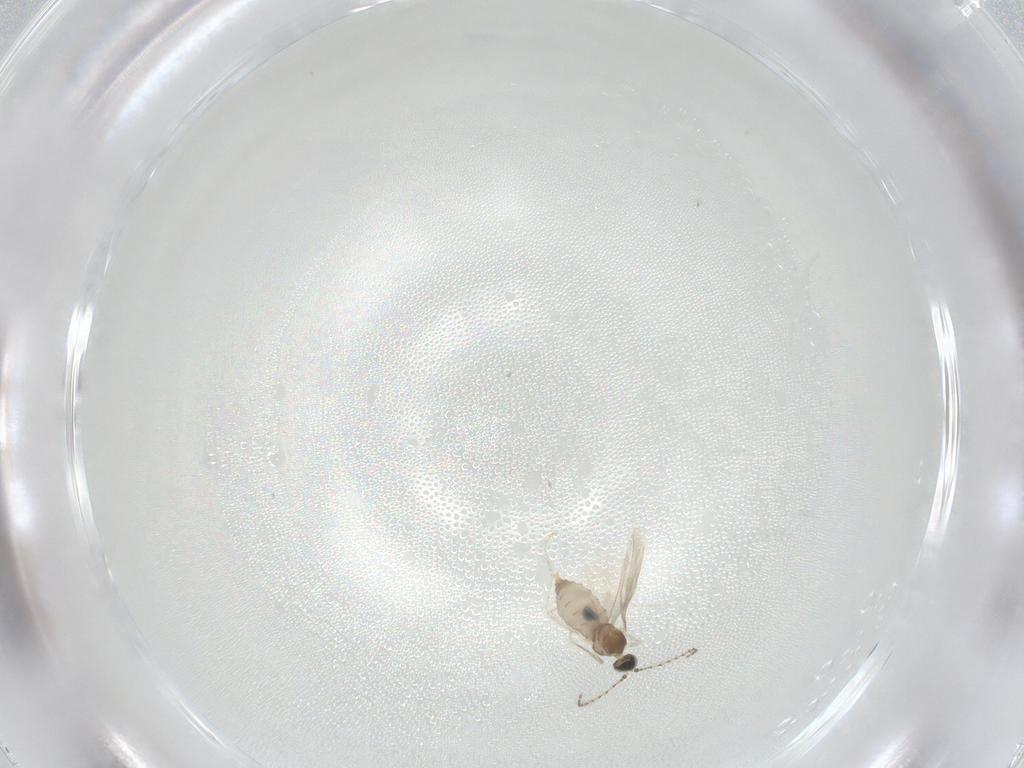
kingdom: Animalia
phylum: Arthropoda
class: Insecta
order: Diptera
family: Cecidomyiidae
